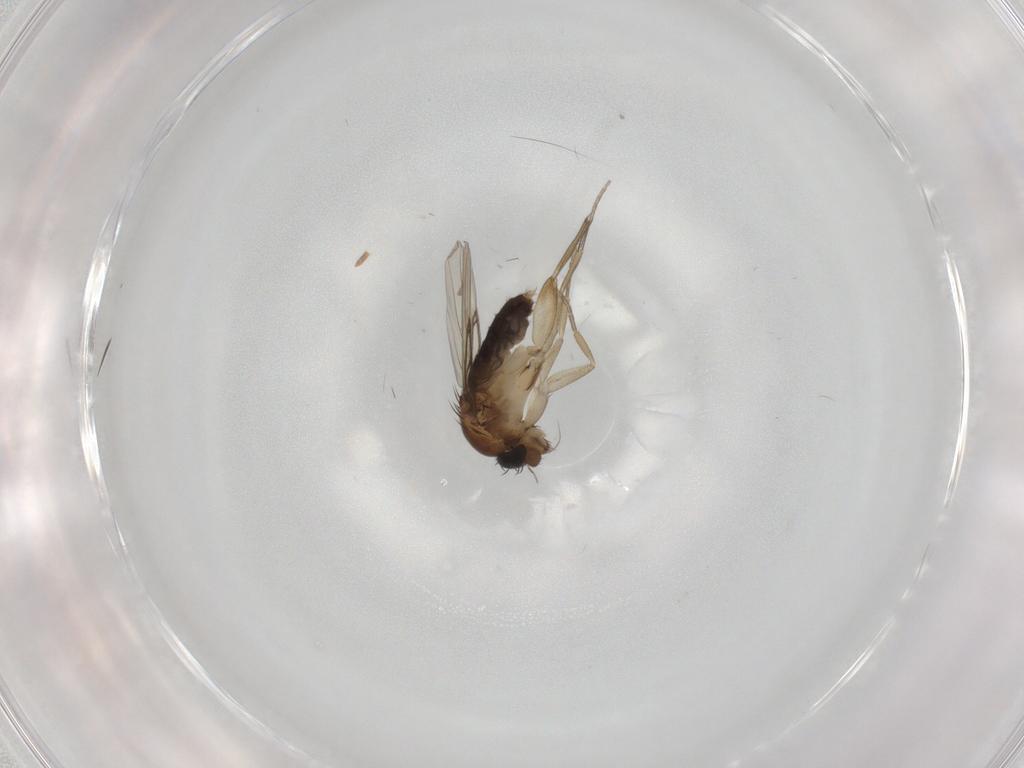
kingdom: Animalia
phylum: Arthropoda
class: Insecta
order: Diptera
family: Phoridae
